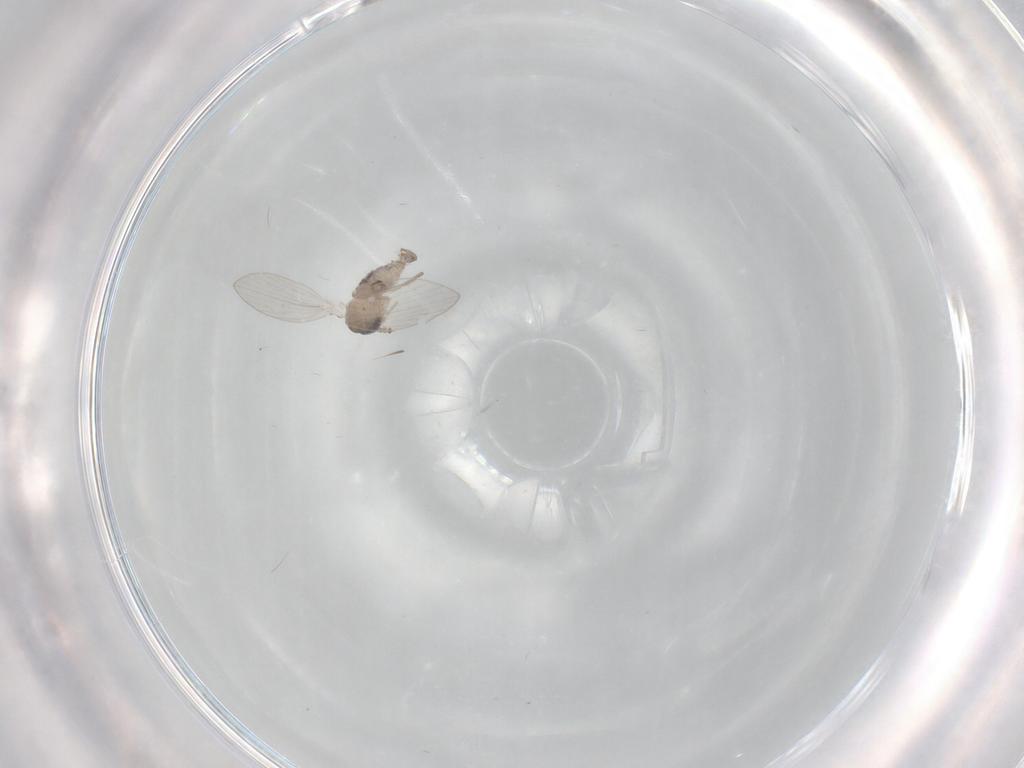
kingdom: Animalia
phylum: Arthropoda
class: Insecta
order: Diptera
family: Psychodidae
